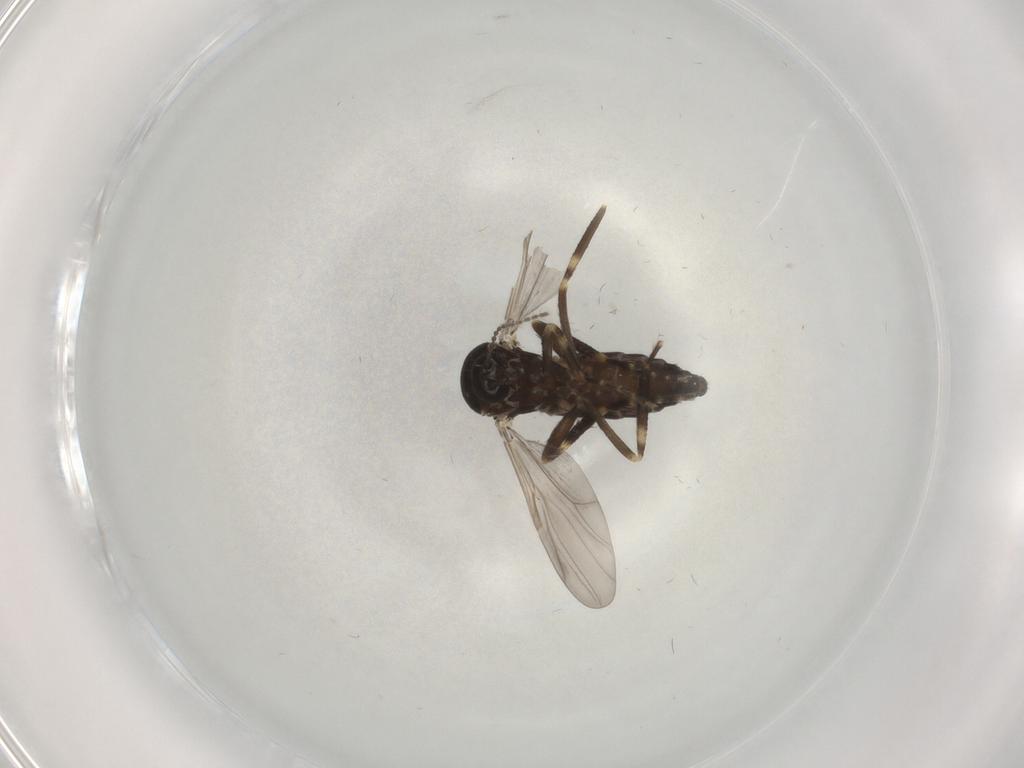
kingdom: Animalia
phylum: Arthropoda
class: Insecta
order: Diptera
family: Ceratopogonidae
